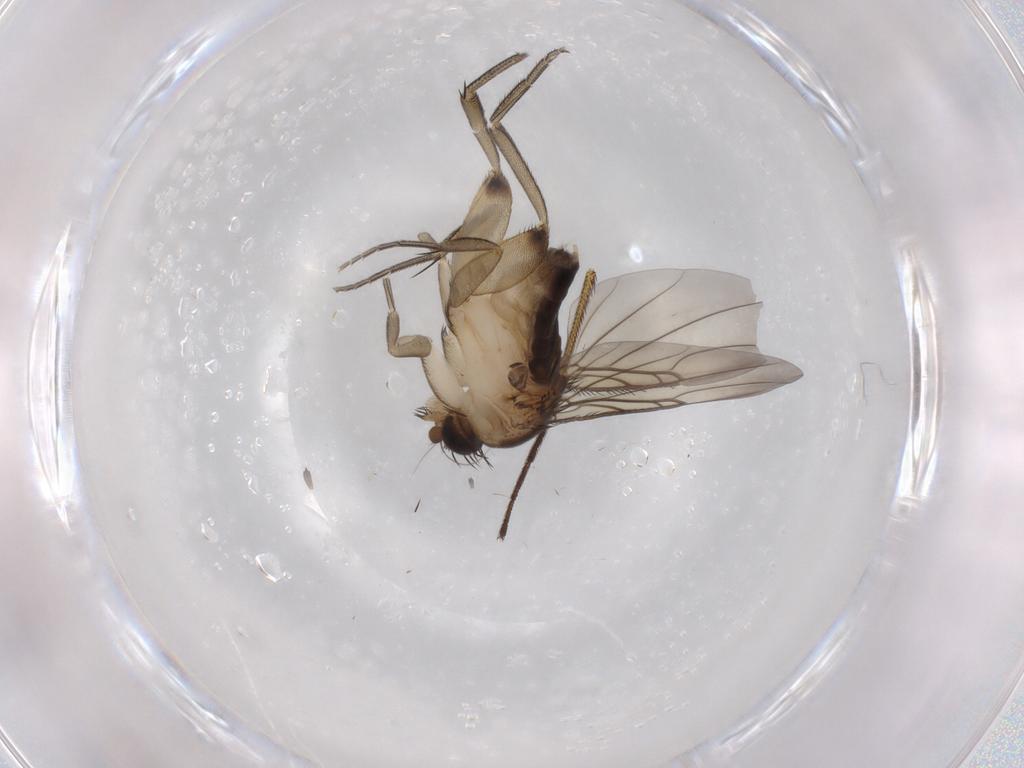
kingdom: Animalia
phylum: Arthropoda
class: Insecta
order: Diptera
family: Phoridae
